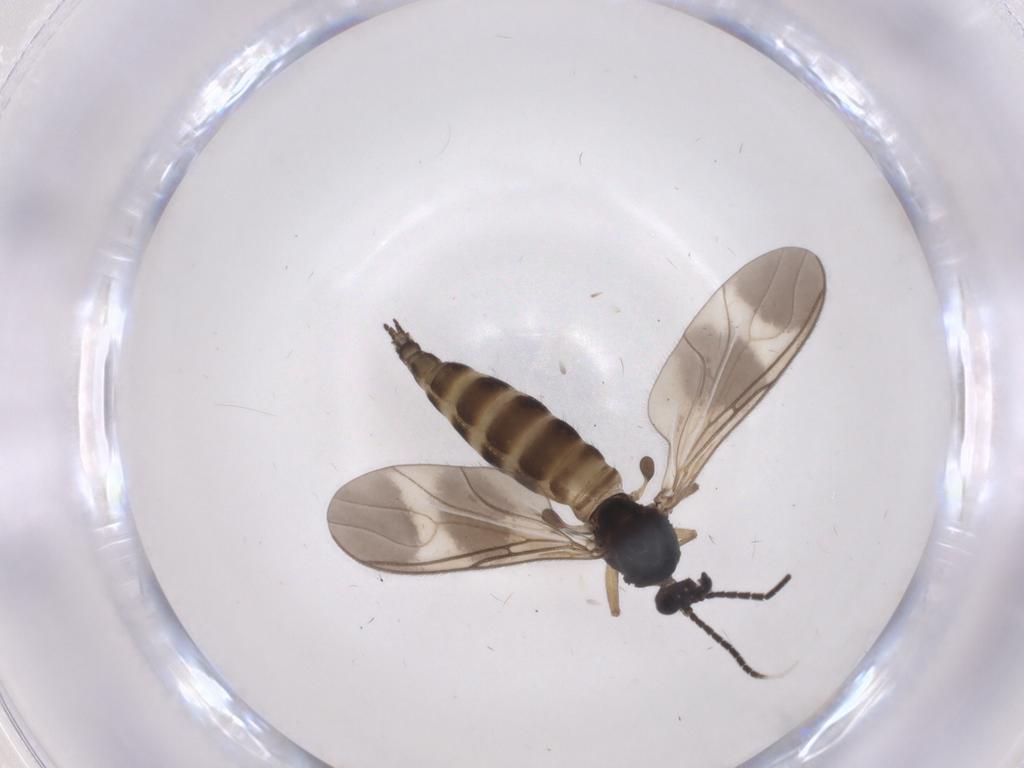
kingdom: Animalia
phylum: Arthropoda
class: Insecta
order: Diptera
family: Sciaridae
